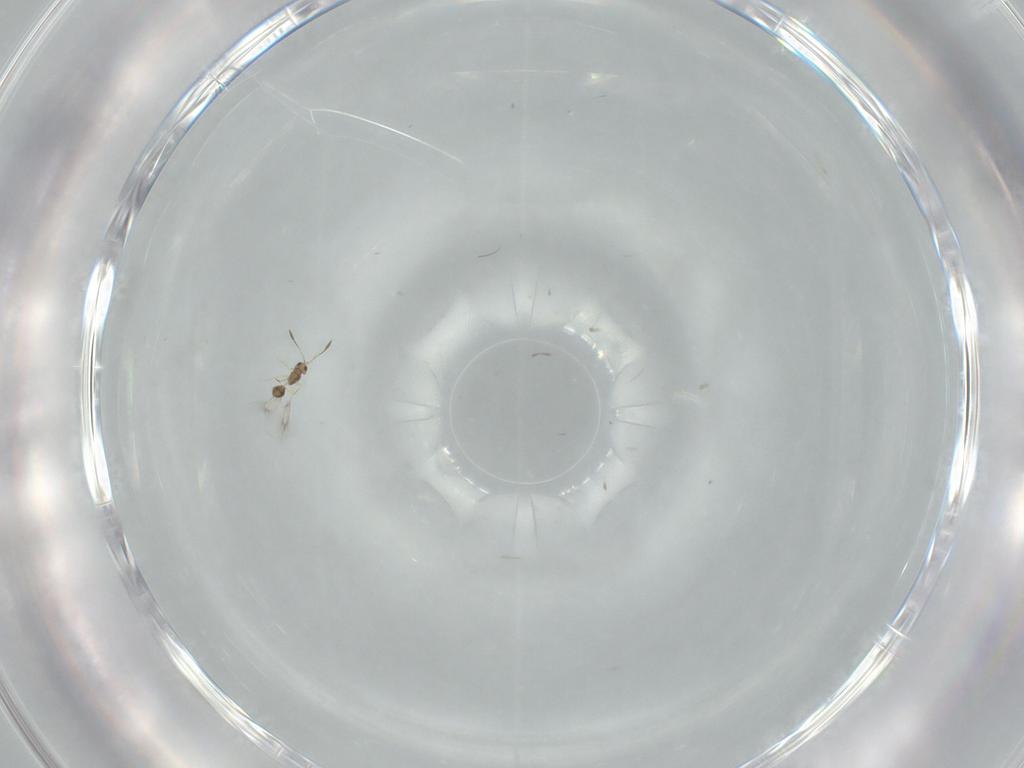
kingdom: Animalia
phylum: Arthropoda
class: Insecta
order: Hymenoptera
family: Mymarommatidae
